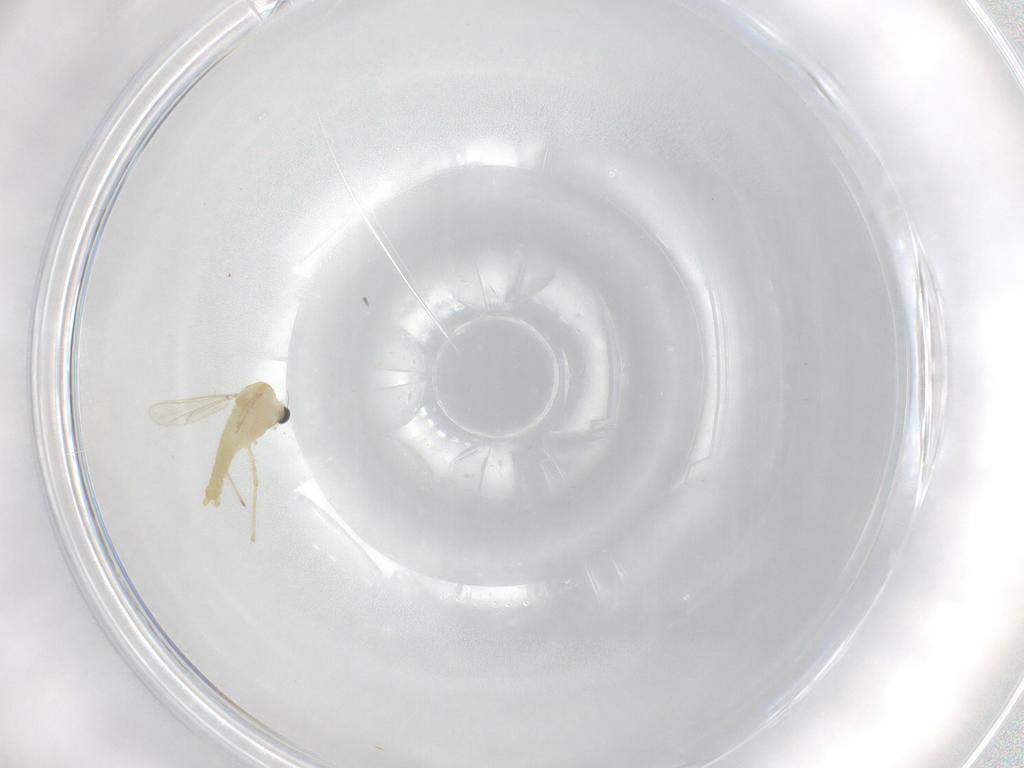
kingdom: Animalia
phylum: Arthropoda
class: Insecta
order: Diptera
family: Chironomidae
